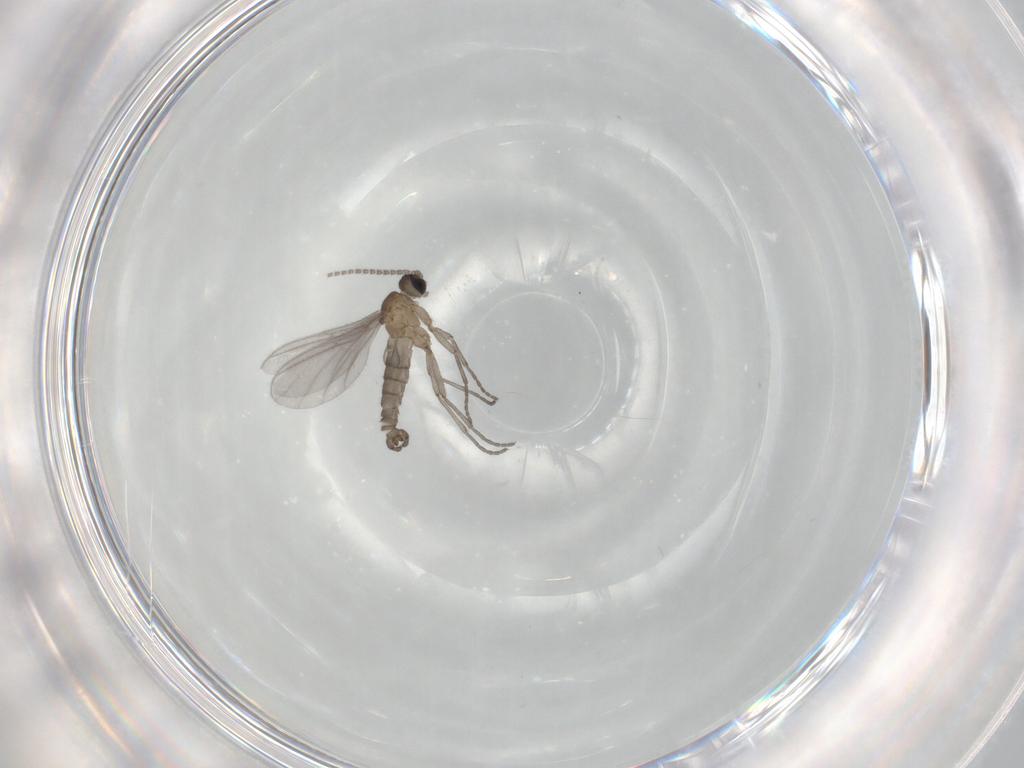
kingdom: Animalia
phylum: Arthropoda
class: Insecta
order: Diptera
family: Sciaridae
